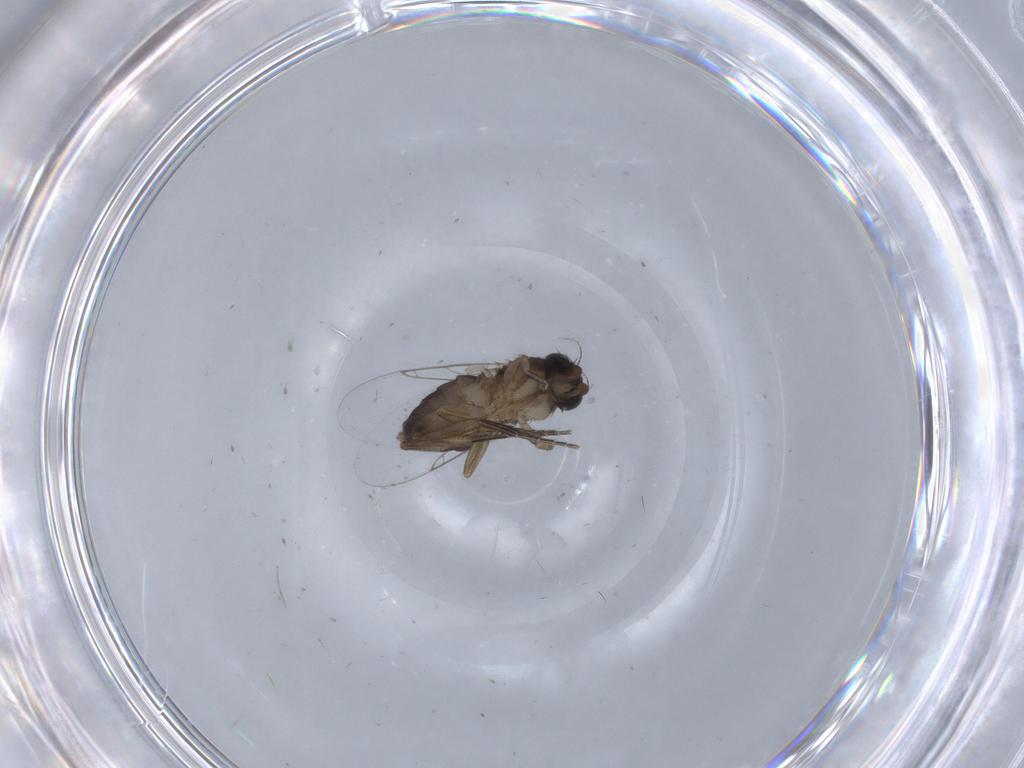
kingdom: Animalia
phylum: Arthropoda
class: Insecta
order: Diptera
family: Phoridae
